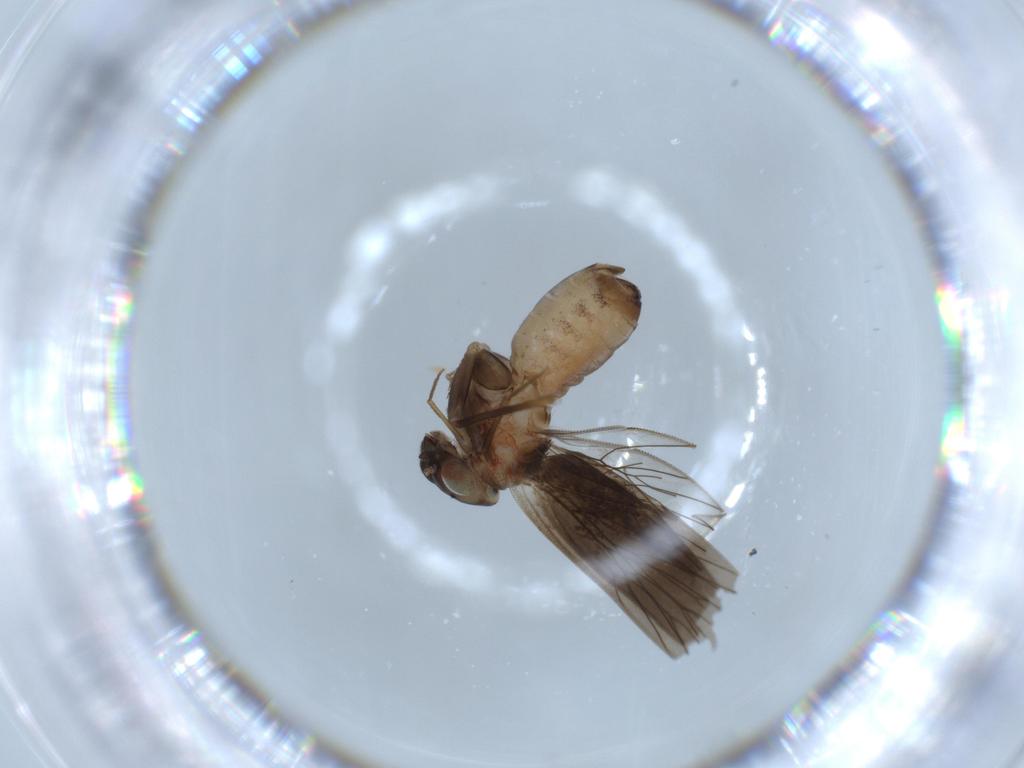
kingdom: Animalia
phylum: Arthropoda
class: Insecta
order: Psocodea
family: Lepidopsocidae
